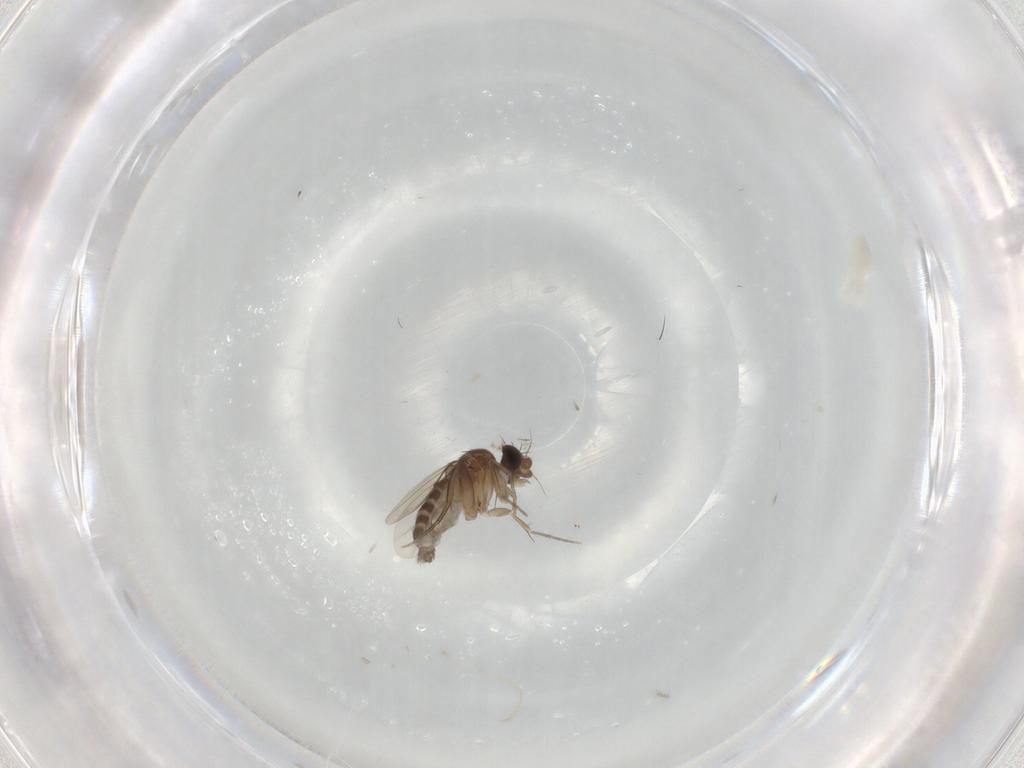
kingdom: Animalia
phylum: Arthropoda
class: Insecta
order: Diptera
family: Phoridae
